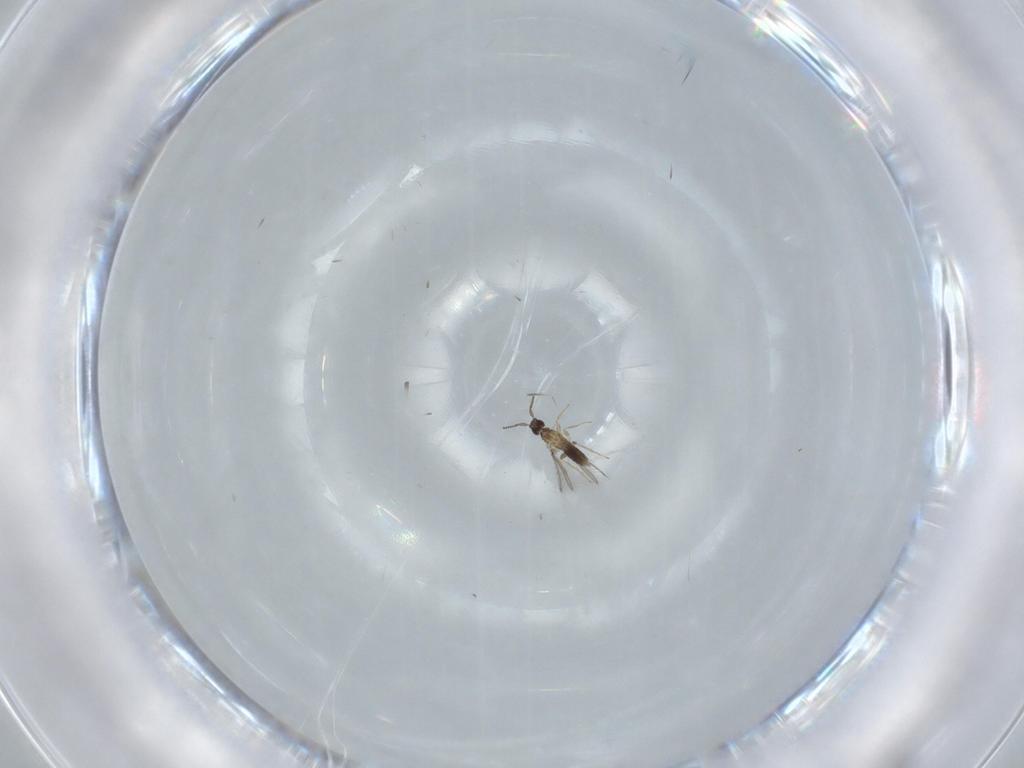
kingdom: Animalia
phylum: Arthropoda
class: Insecta
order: Hymenoptera
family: Mymaridae
